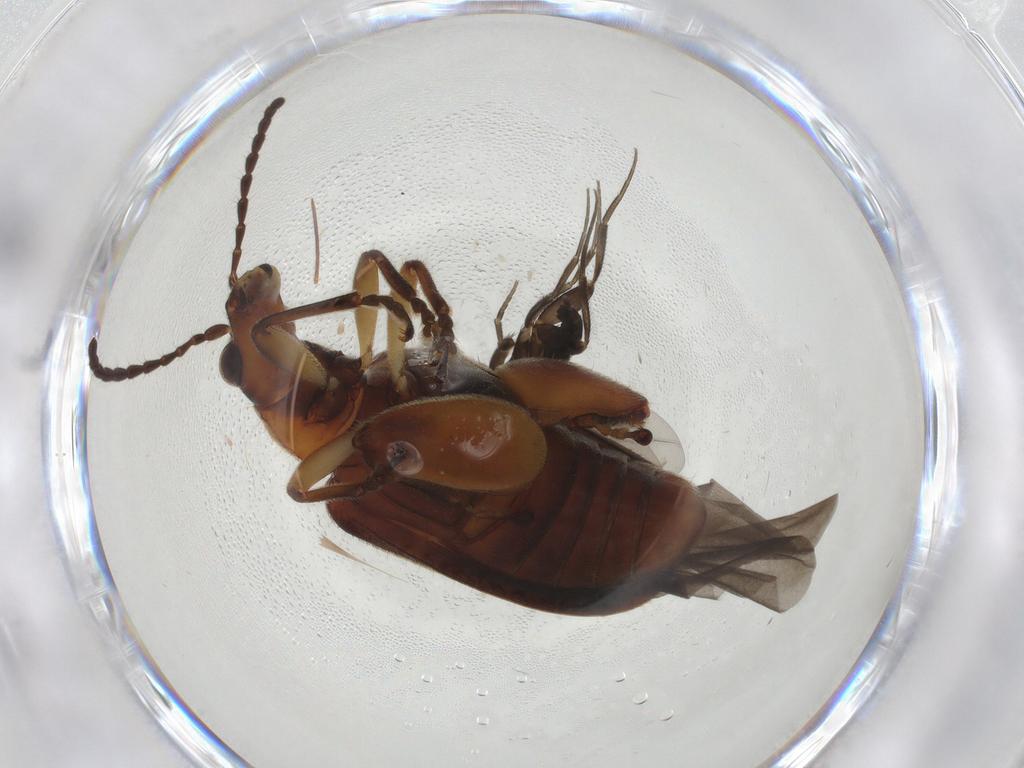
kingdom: Animalia
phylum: Arthropoda
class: Insecta
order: Coleoptera
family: Chrysomelidae
